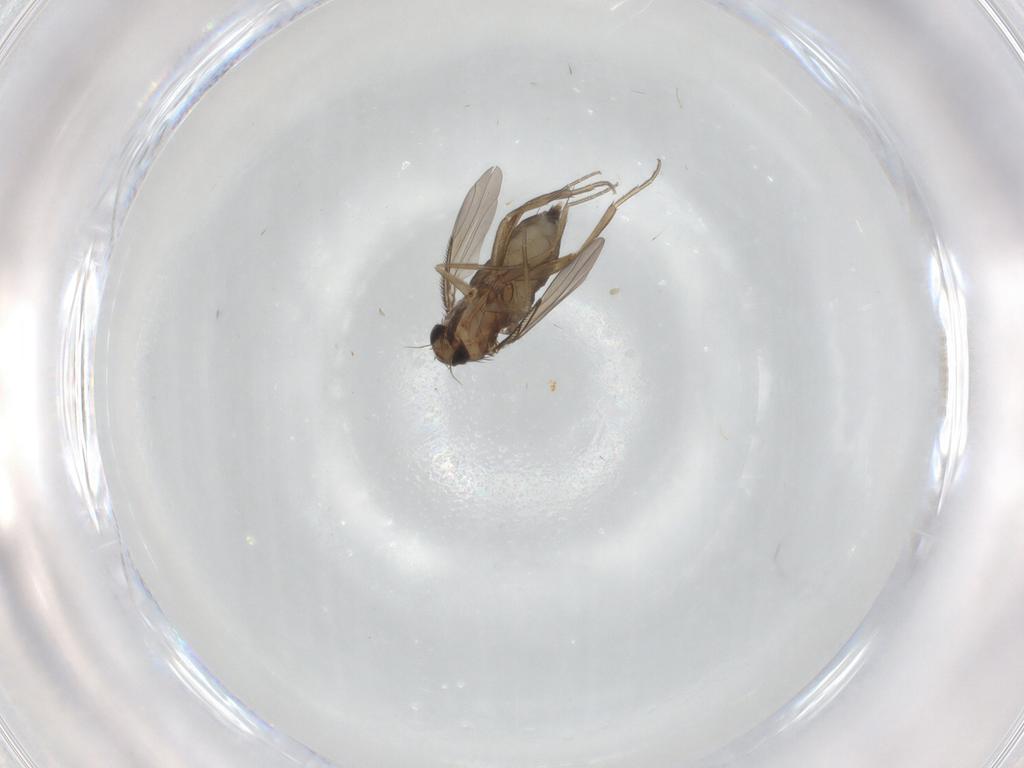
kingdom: Animalia
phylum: Arthropoda
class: Insecta
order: Diptera
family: Phoridae
